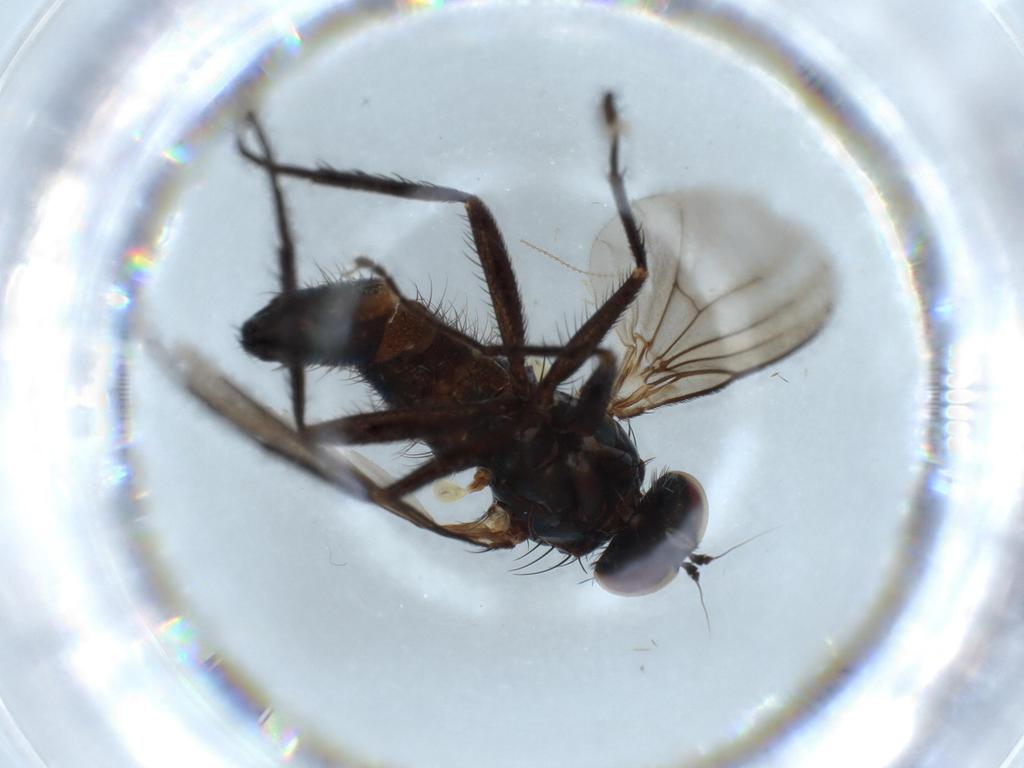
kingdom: Animalia
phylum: Arthropoda
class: Insecta
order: Diptera
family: Dolichopodidae
